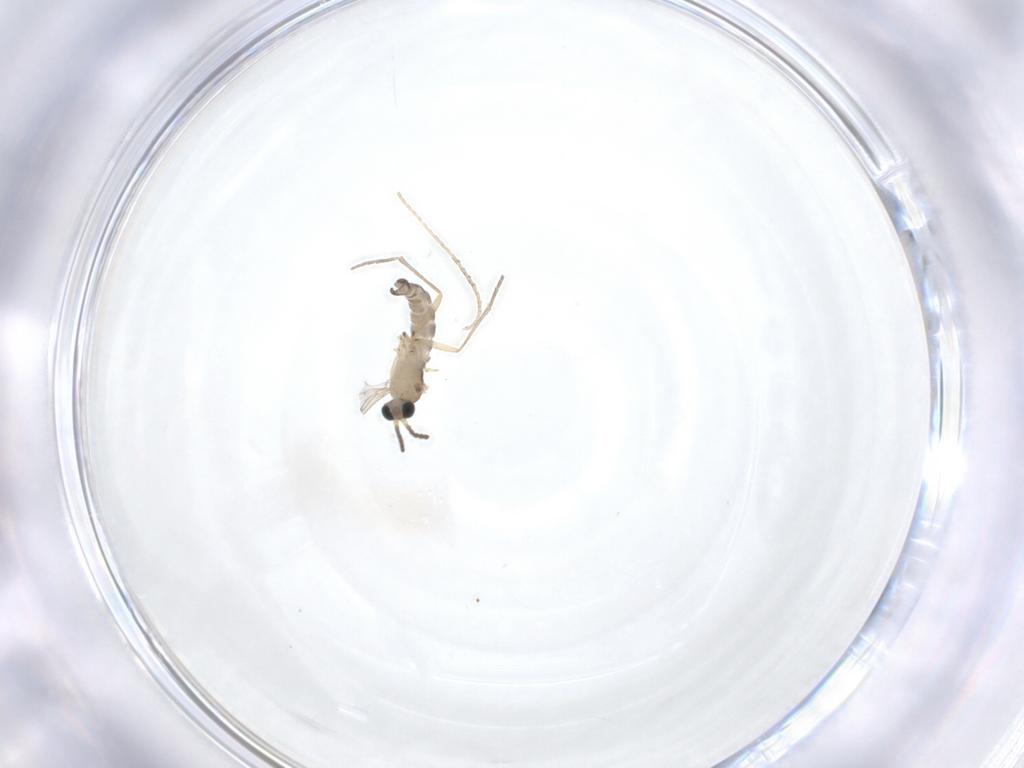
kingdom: Animalia
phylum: Arthropoda
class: Insecta
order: Diptera
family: Sciaridae
